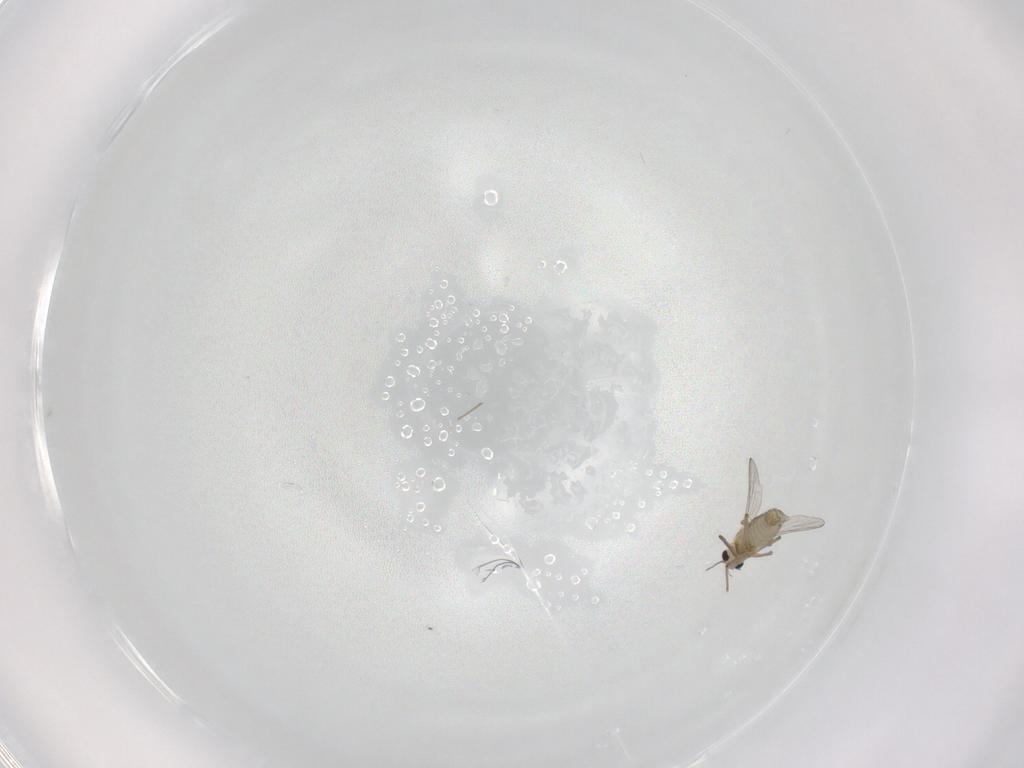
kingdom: Animalia
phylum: Arthropoda
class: Insecta
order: Diptera
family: Chironomidae
